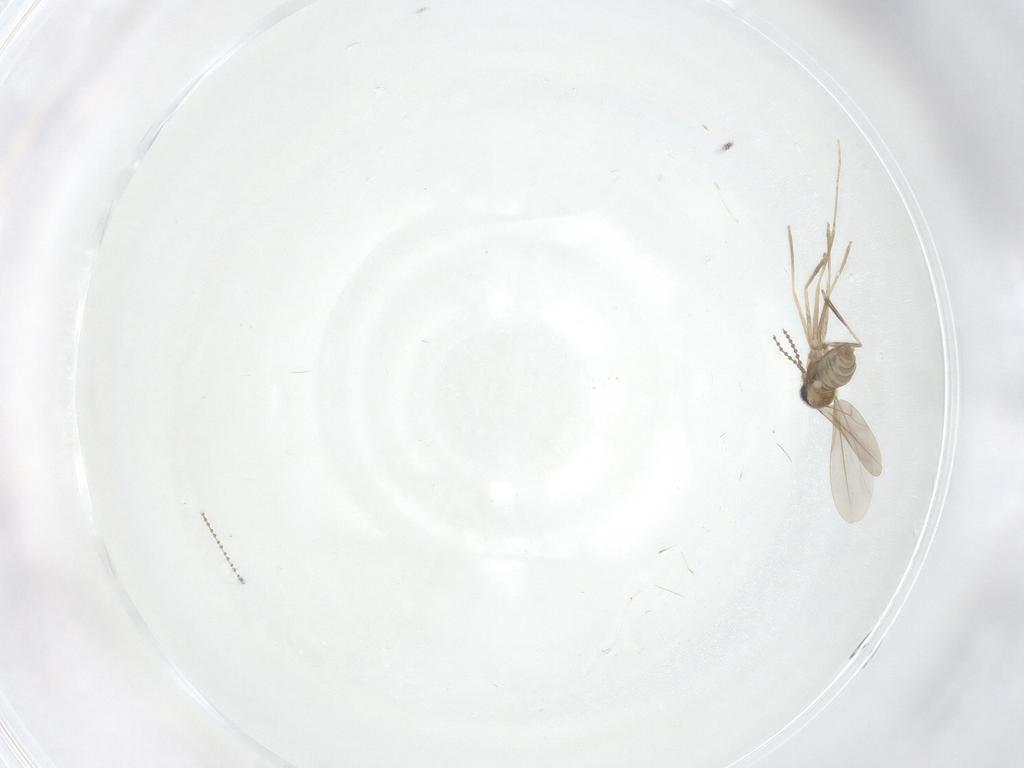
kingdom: Animalia
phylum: Arthropoda
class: Insecta
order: Diptera
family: Cecidomyiidae
